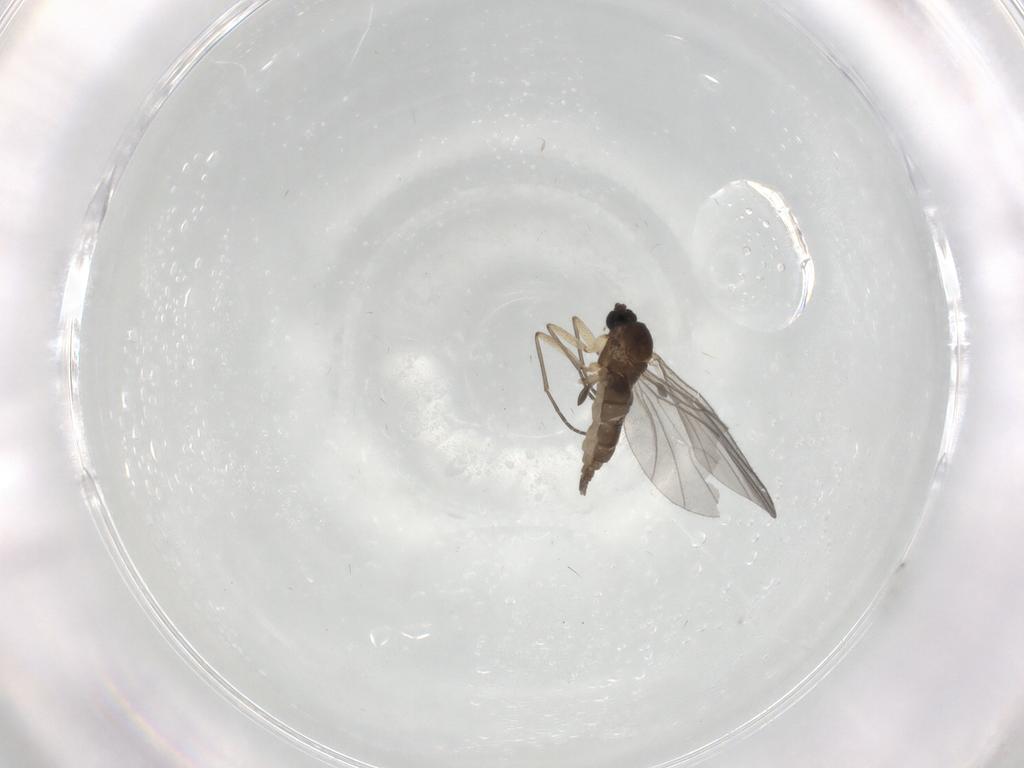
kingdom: Animalia
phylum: Arthropoda
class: Insecta
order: Diptera
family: Sciaridae
